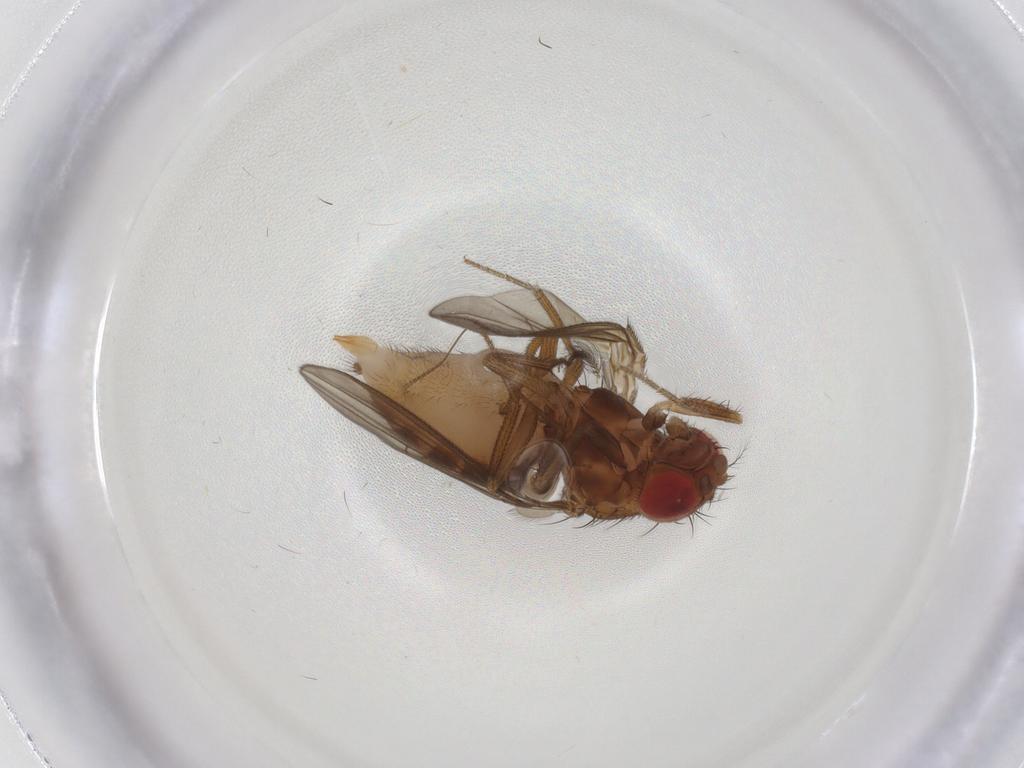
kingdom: Animalia
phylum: Arthropoda
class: Insecta
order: Diptera
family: Drosophilidae
